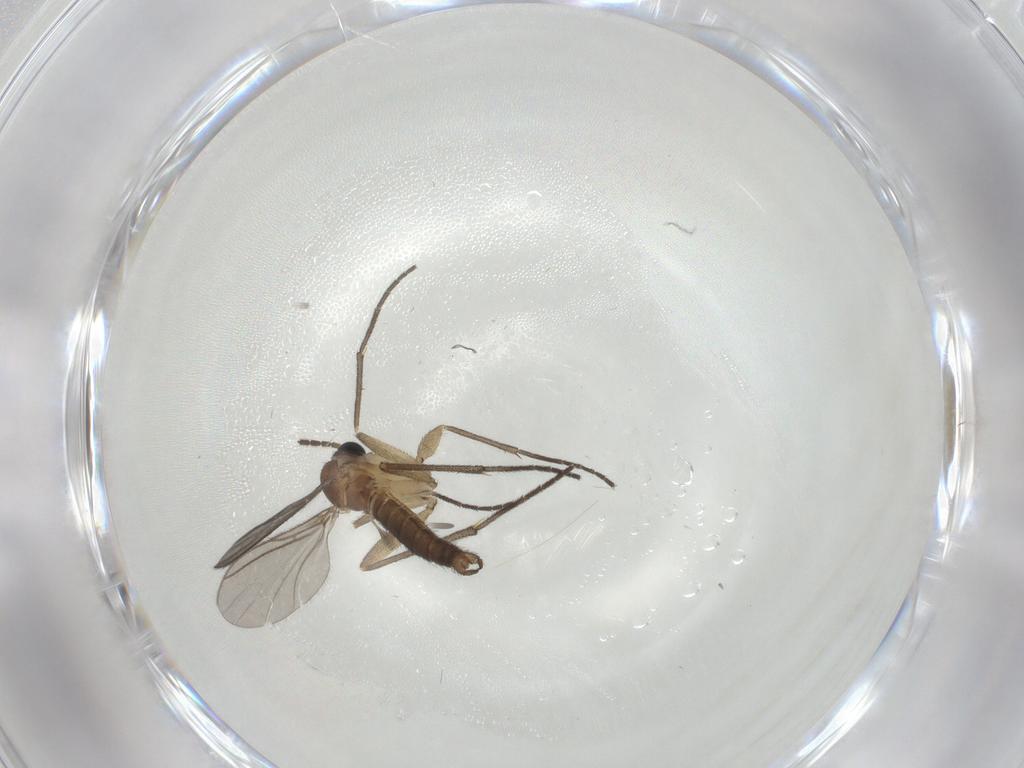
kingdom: Animalia
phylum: Arthropoda
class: Insecta
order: Diptera
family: Sciaridae
